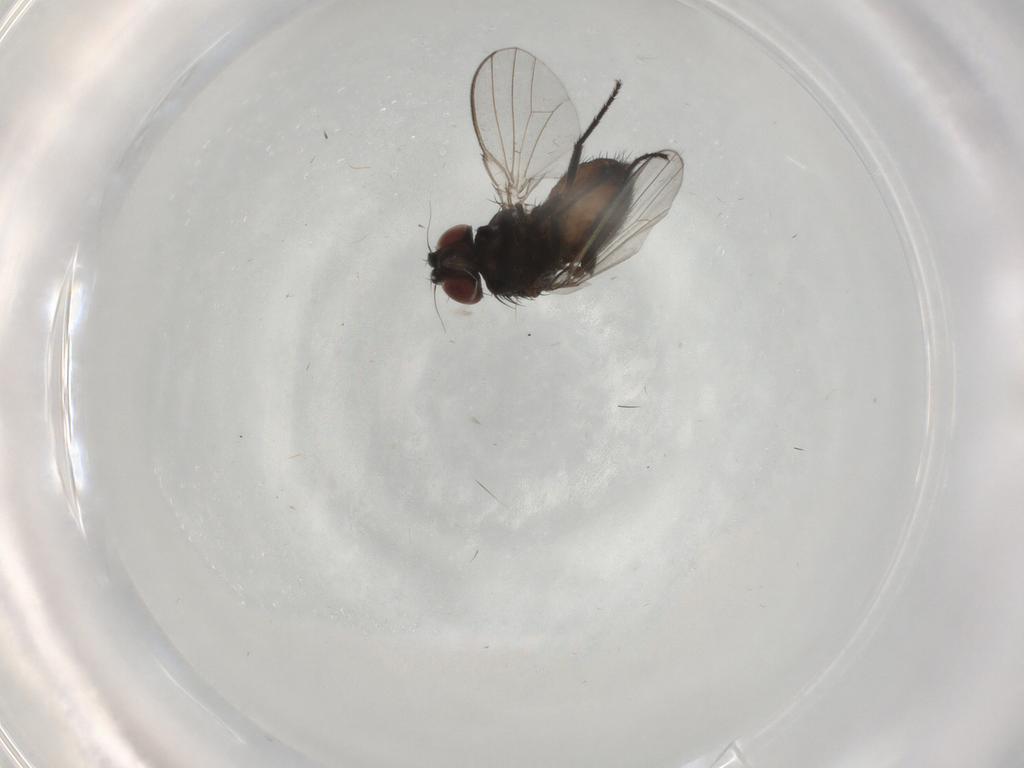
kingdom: Animalia
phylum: Arthropoda
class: Insecta
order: Diptera
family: Milichiidae
